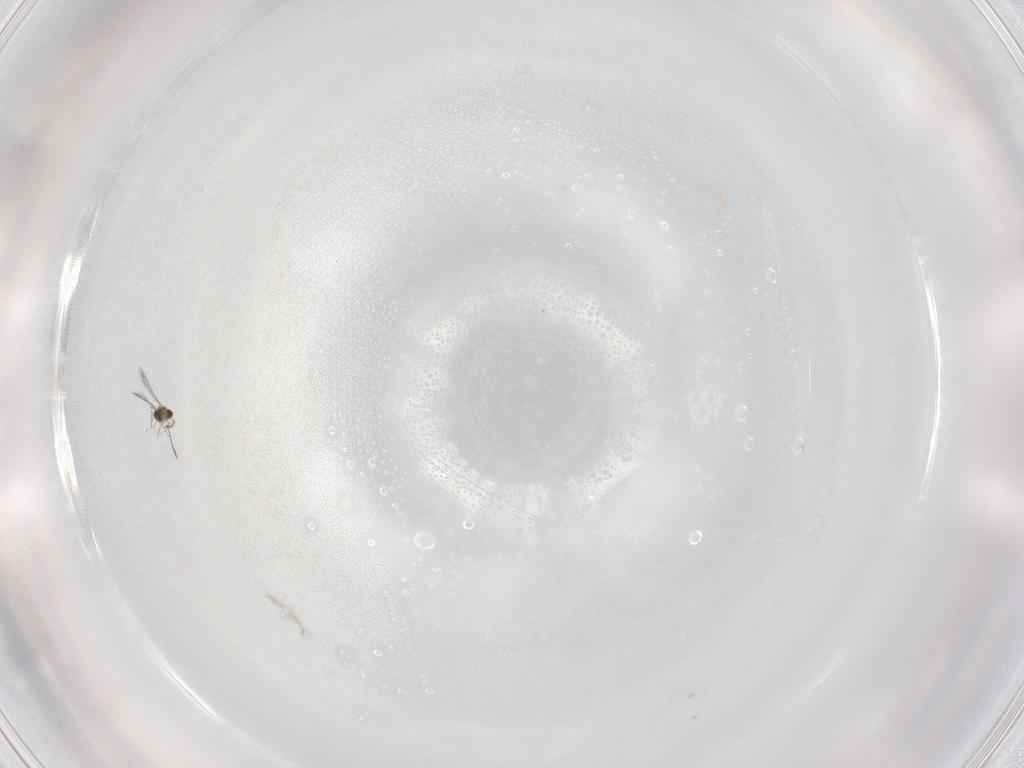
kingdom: Animalia
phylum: Arthropoda
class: Insecta
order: Hymenoptera
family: Mymaridae
